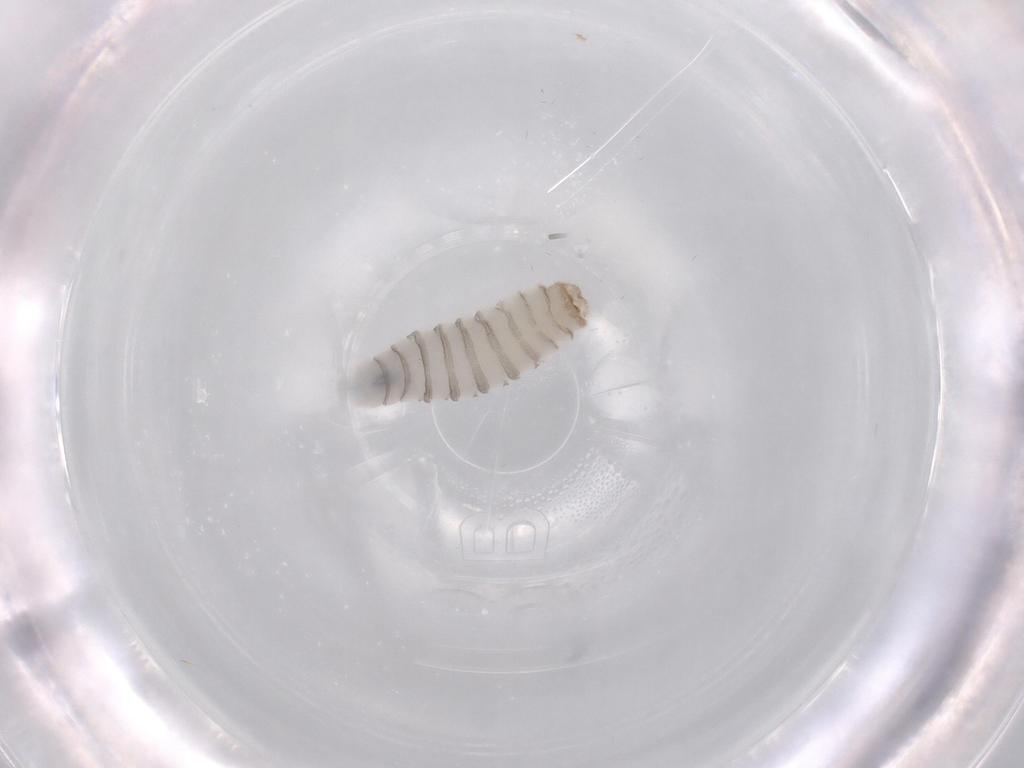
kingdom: Animalia
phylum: Arthropoda
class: Insecta
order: Diptera
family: Sarcophagidae
